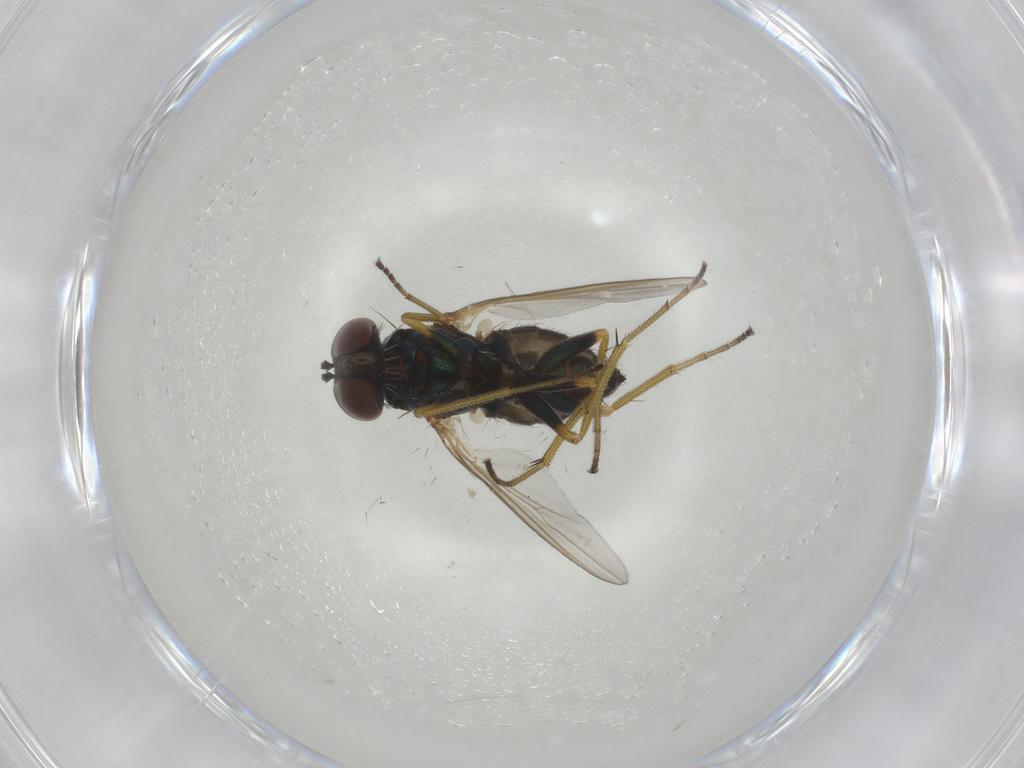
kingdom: Animalia
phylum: Arthropoda
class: Insecta
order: Diptera
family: Dolichopodidae
